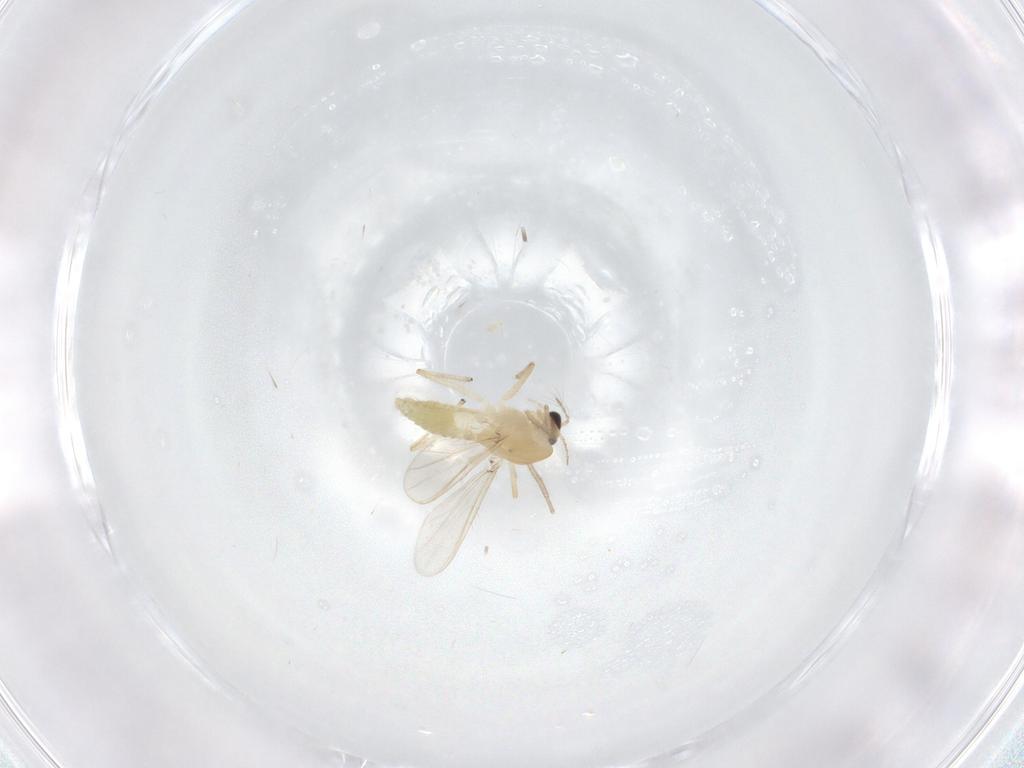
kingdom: Animalia
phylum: Arthropoda
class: Insecta
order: Diptera
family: Chironomidae
